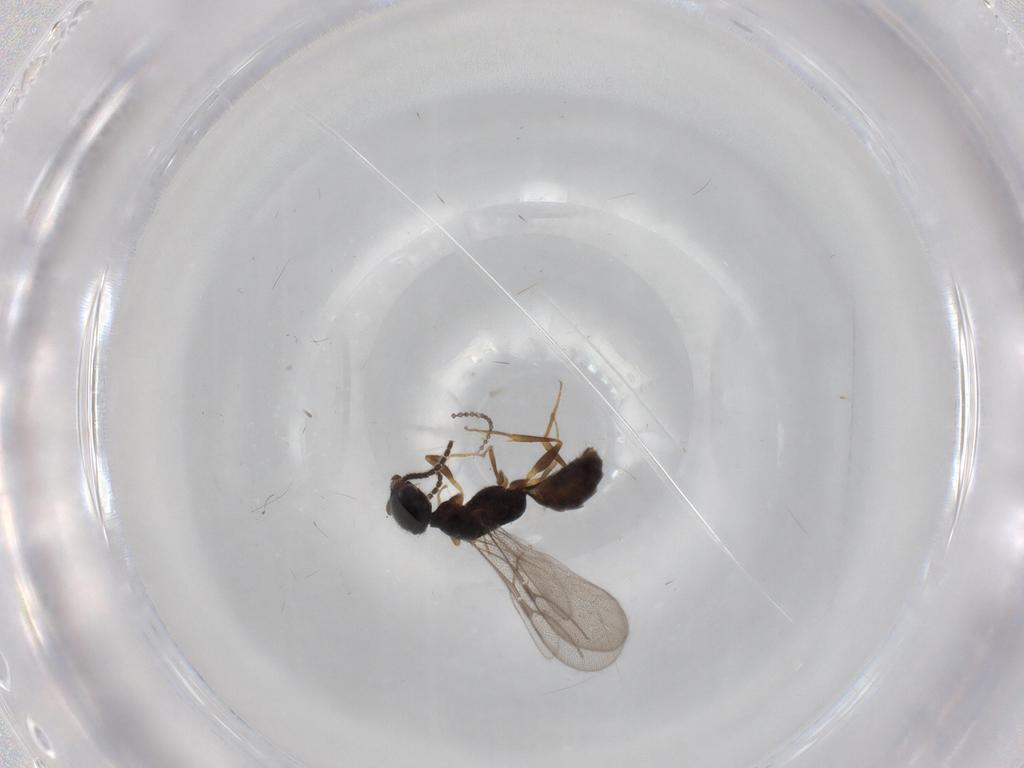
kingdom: Animalia
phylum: Arthropoda
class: Insecta
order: Hymenoptera
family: Bethylidae
